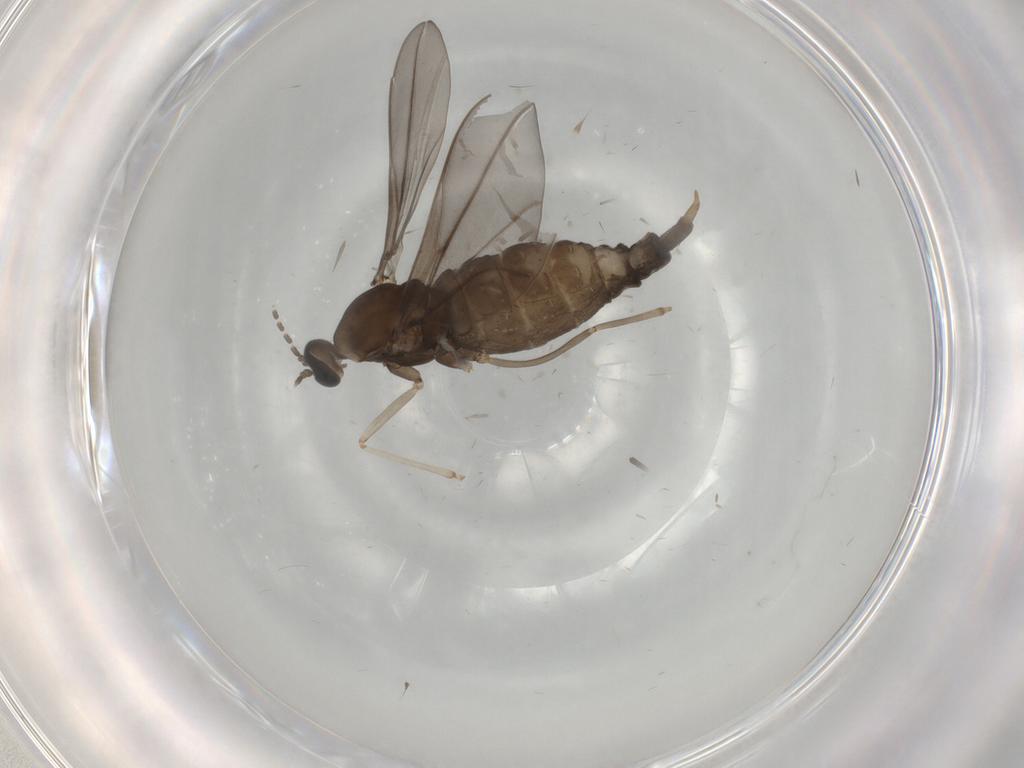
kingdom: Animalia
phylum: Arthropoda
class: Insecta
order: Diptera
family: Cecidomyiidae
